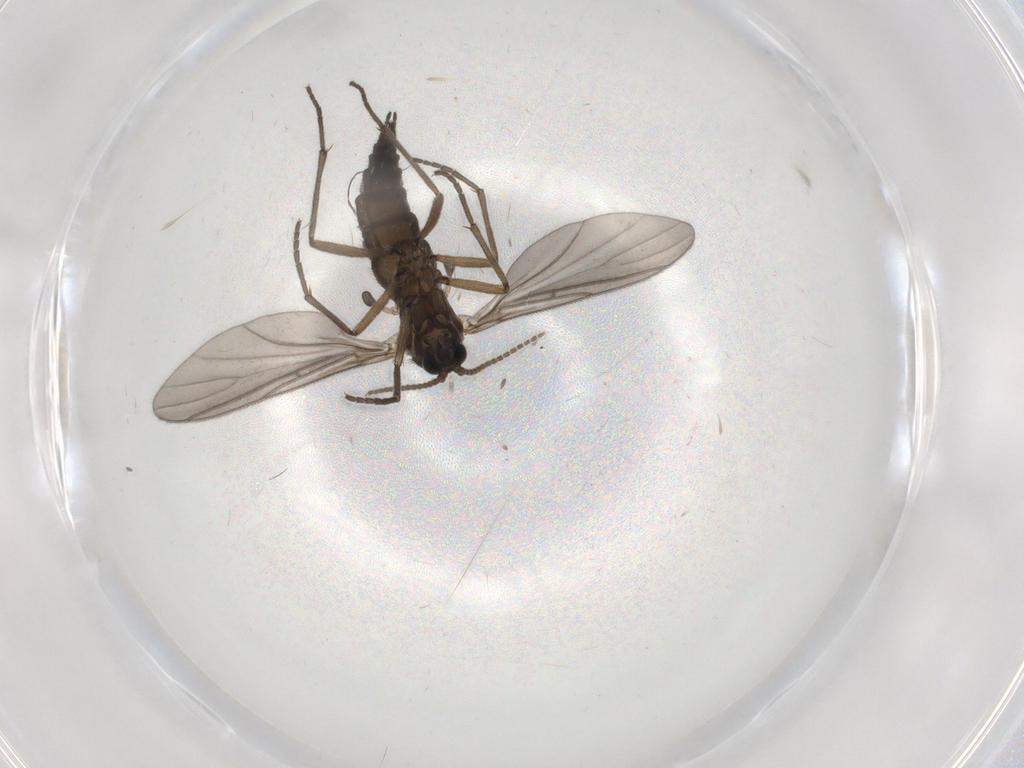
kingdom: Animalia
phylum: Arthropoda
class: Insecta
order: Diptera
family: Sciaridae
